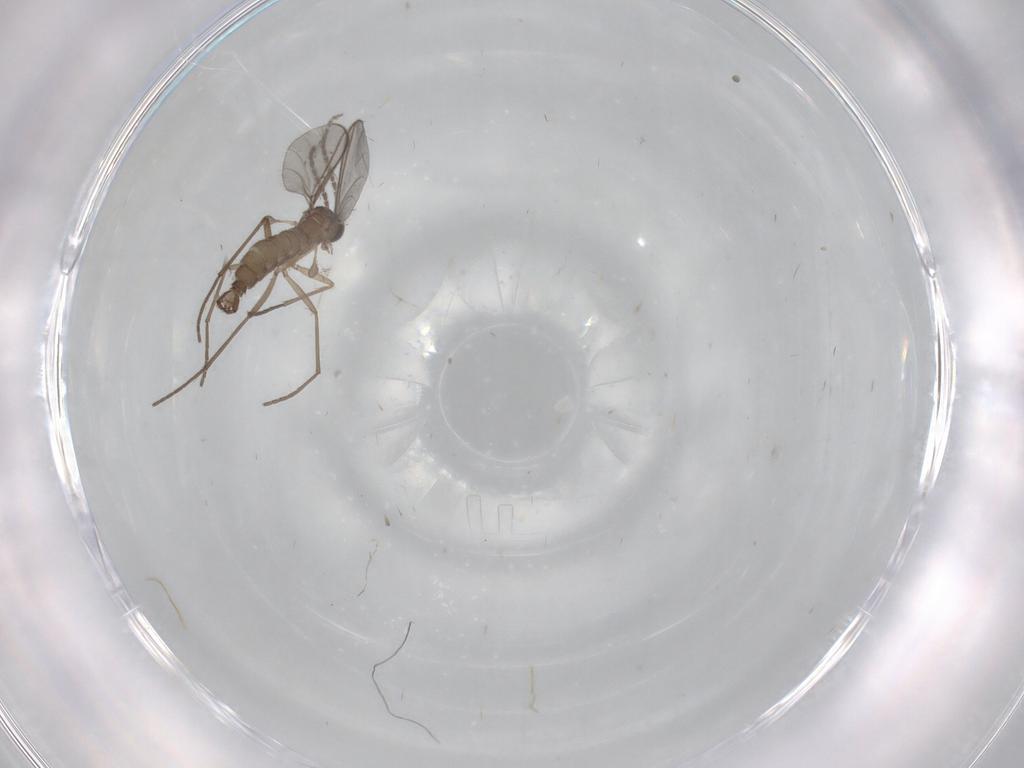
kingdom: Animalia
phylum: Arthropoda
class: Insecta
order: Diptera
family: Sciaridae
